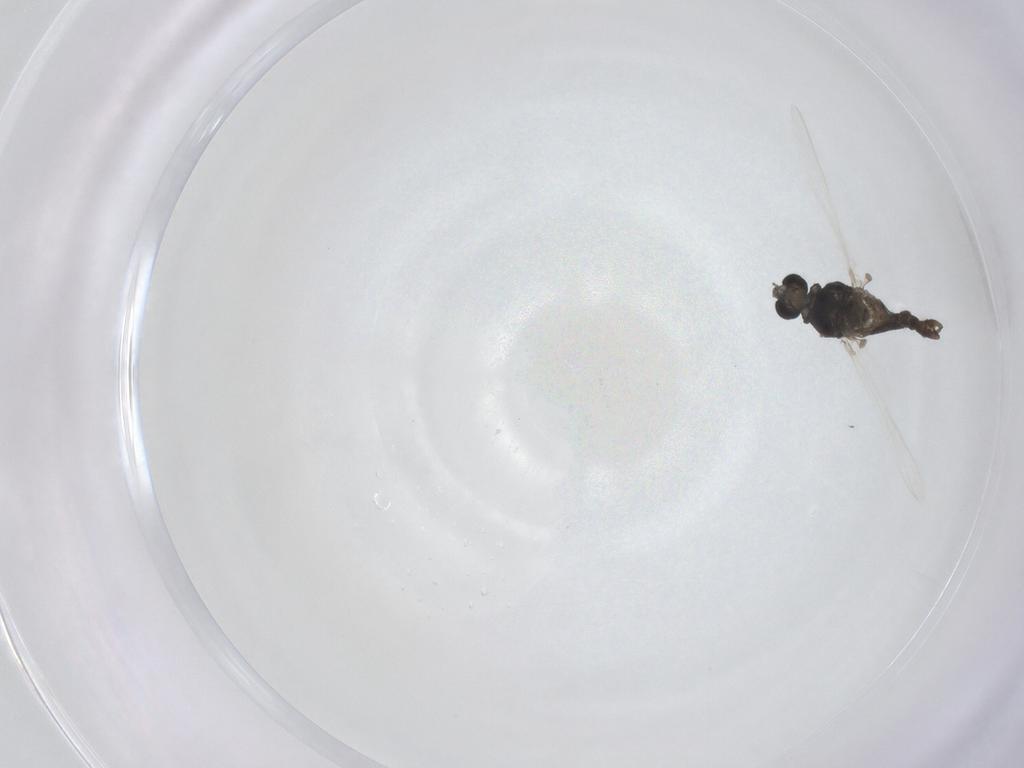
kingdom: Animalia
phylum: Arthropoda
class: Insecta
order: Diptera
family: Chironomidae
